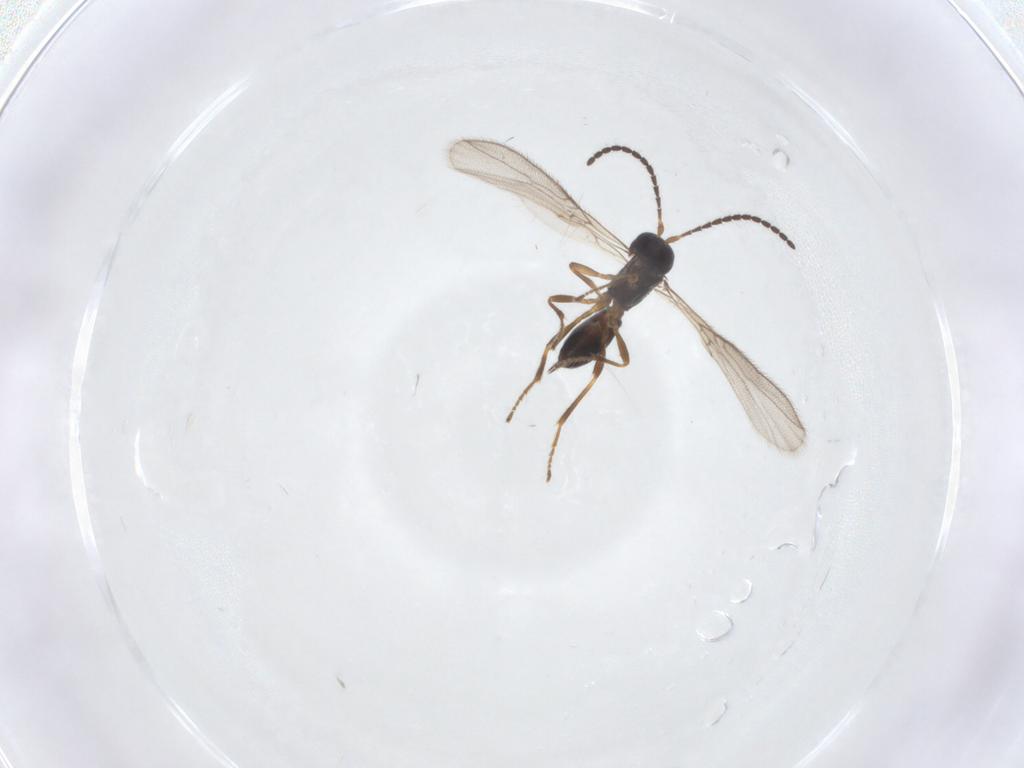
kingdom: Animalia
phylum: Arthropoda
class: Insecta
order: Hymenoptera
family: Braconidae
